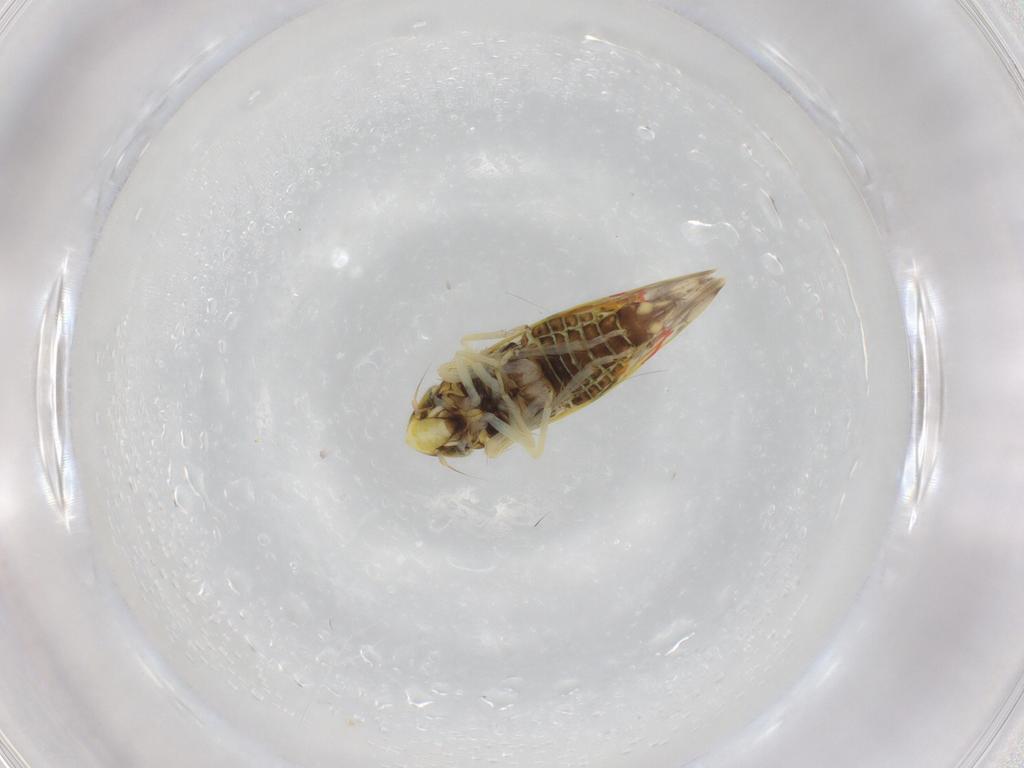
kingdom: Animalia
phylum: Arthropoda
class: Insecta
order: Hemiptera
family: Cicadellidae
